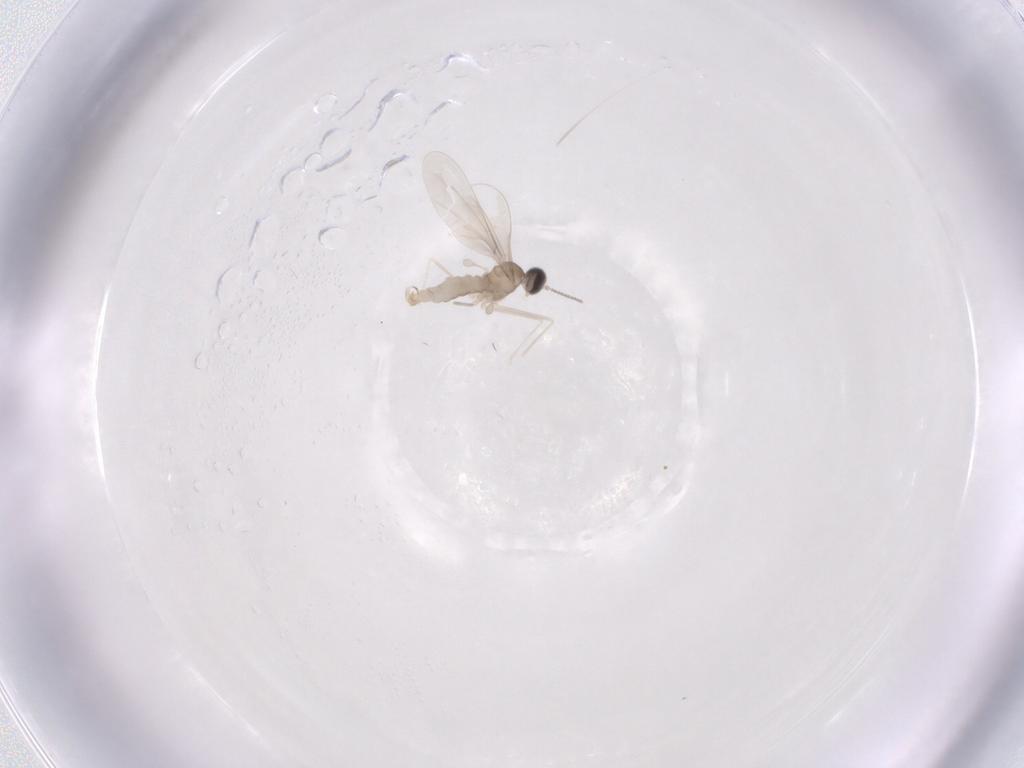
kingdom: Animalia
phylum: Arthropoda
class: Insecta
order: Diptera
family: Cecidomyiidae
